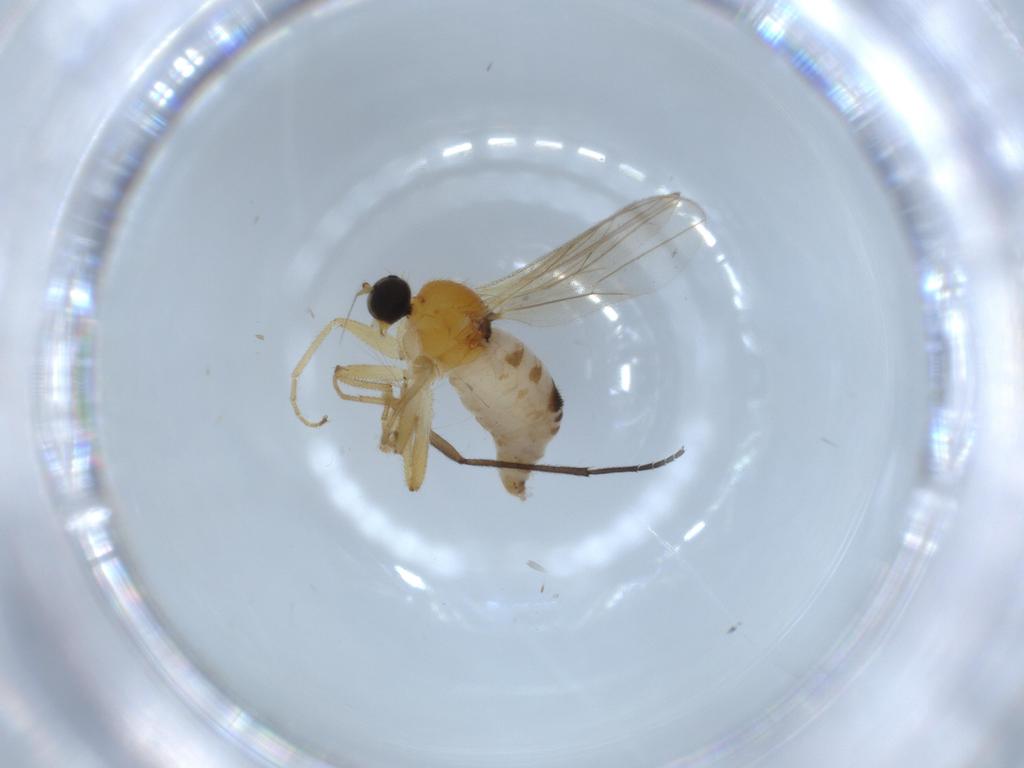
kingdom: Animalia
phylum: Arthropoda
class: Insecta
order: Diptera
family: Hybotidae
